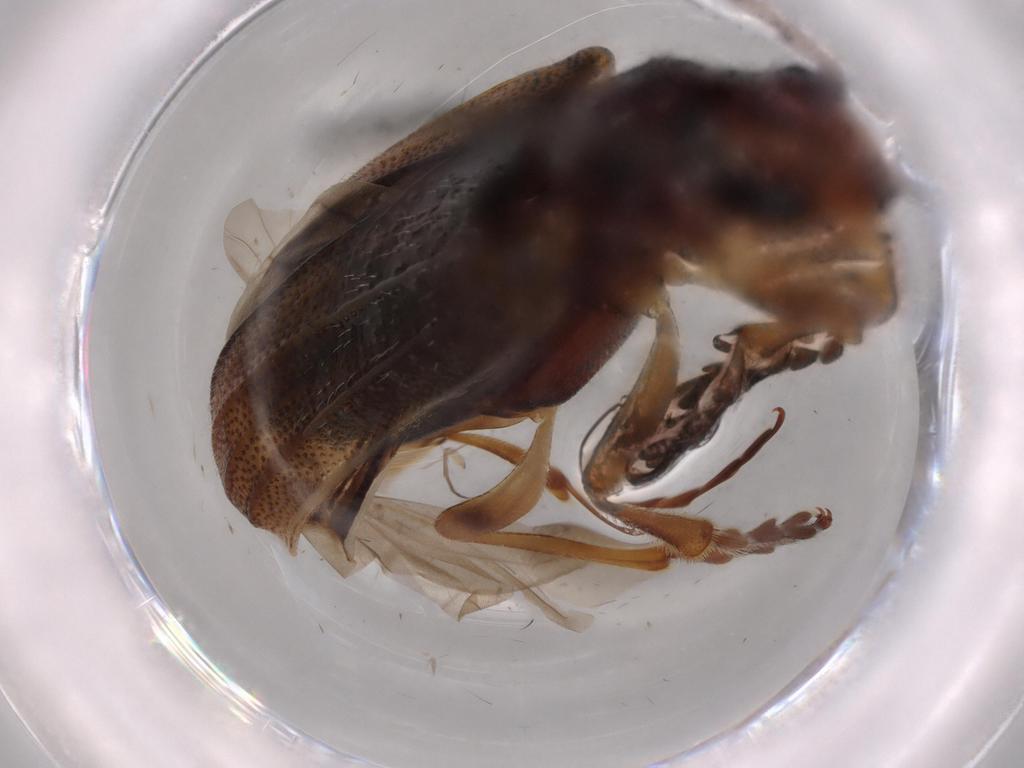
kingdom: Animalia
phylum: Arthropoda
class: Insecta
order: Coleoptera
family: Chrysomelidae
